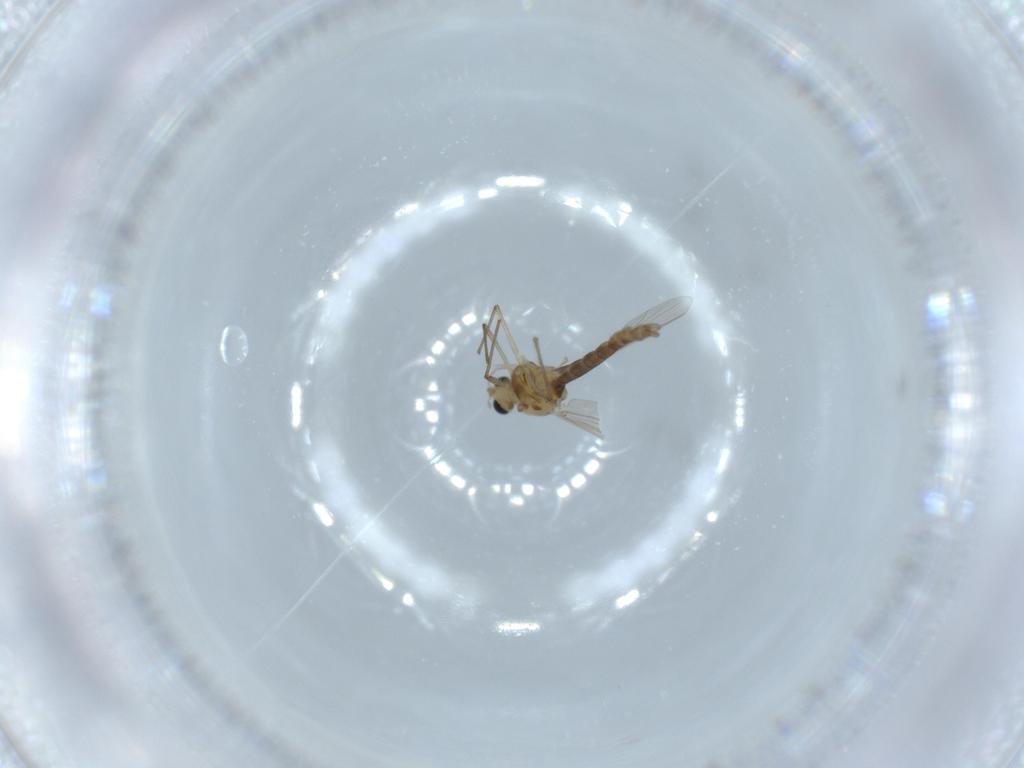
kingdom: Animalia
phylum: Arthropoda
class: Insecta
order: Diptera
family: Chironomidae
